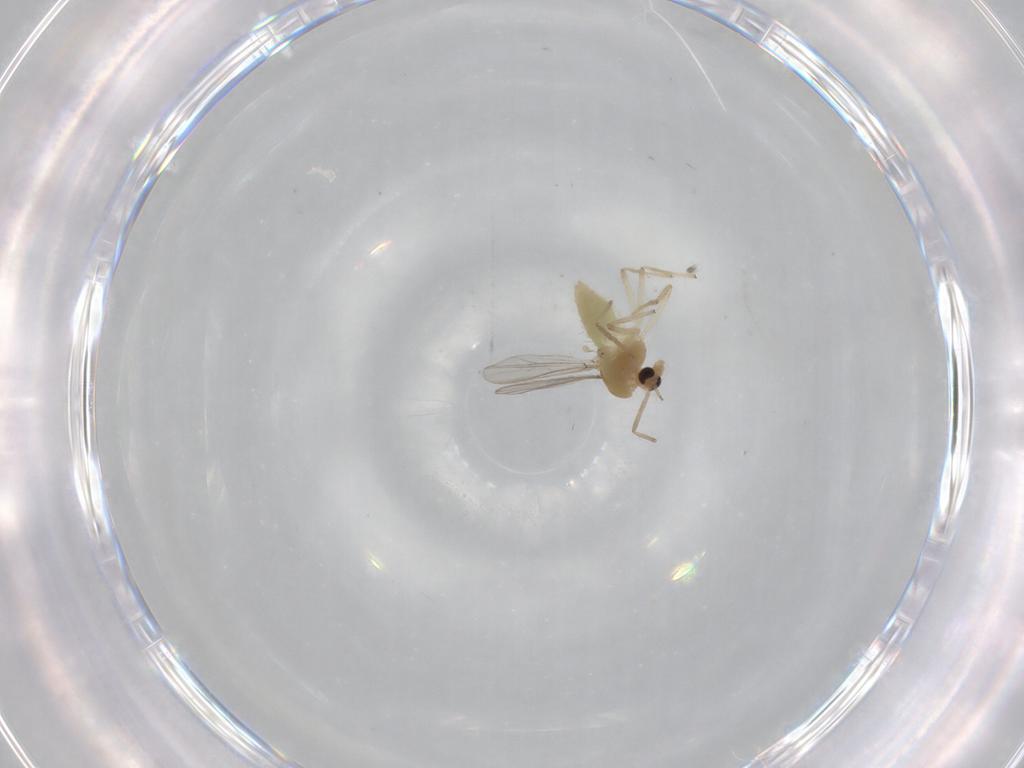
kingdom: Animalia
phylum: Arthropoda
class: Insecta
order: Diptera
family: Chironomidae
